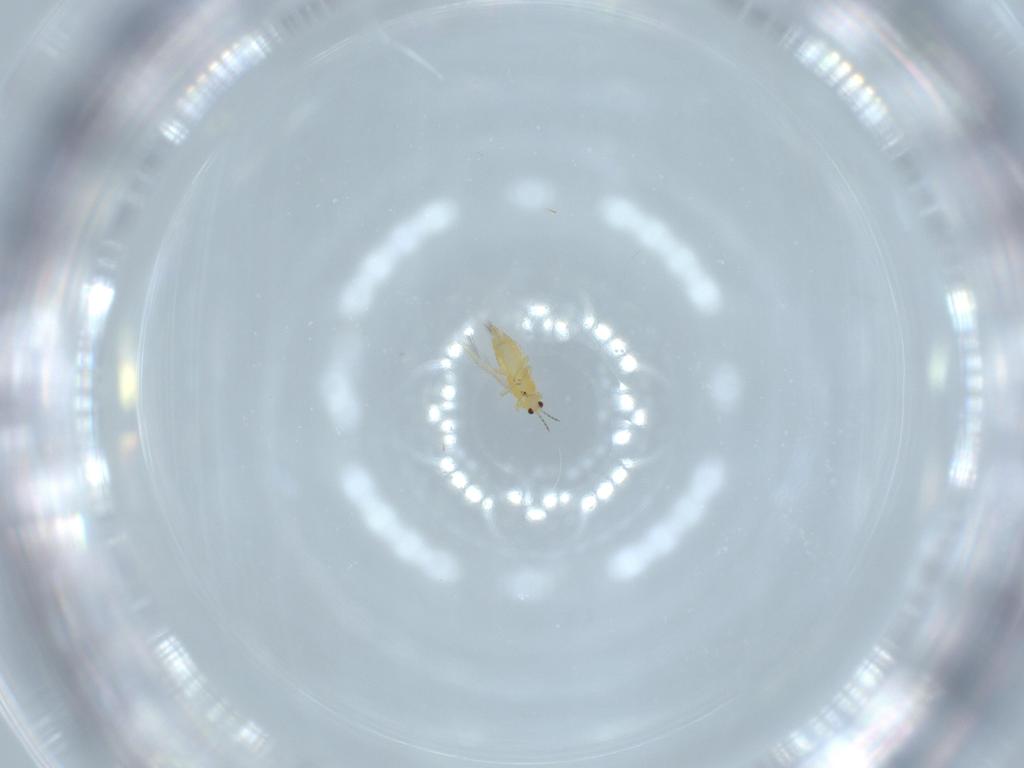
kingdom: Animalia
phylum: Arthropoda
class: Insecta
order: Thysanoptera
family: Thripidae
